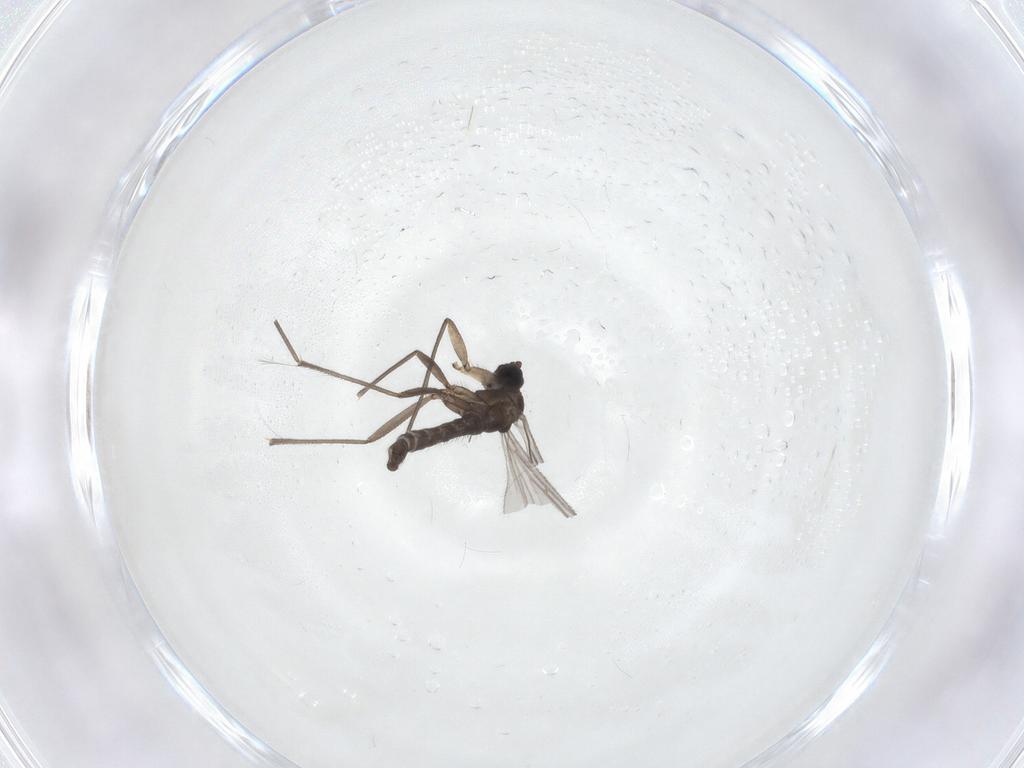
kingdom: Animalia
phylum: Arthropoda
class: Insecta
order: Diptera
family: Sciaridae
